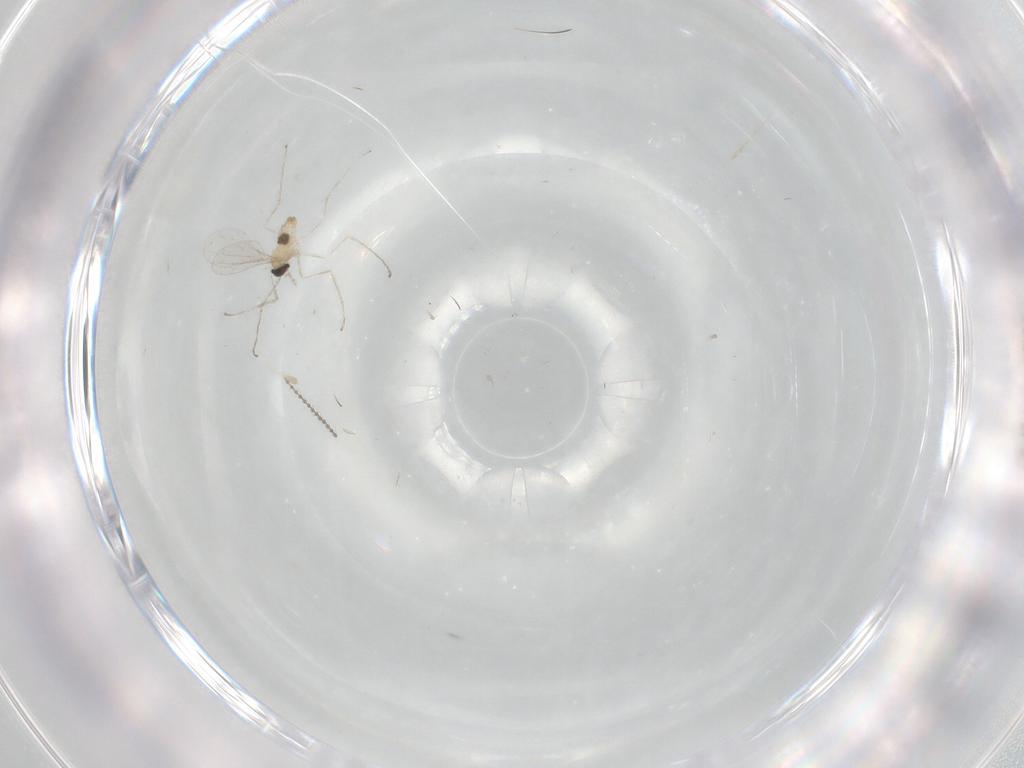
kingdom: Animalia
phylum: Arthropoda
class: Insecta
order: Diptera
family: Cecidomyiidae
